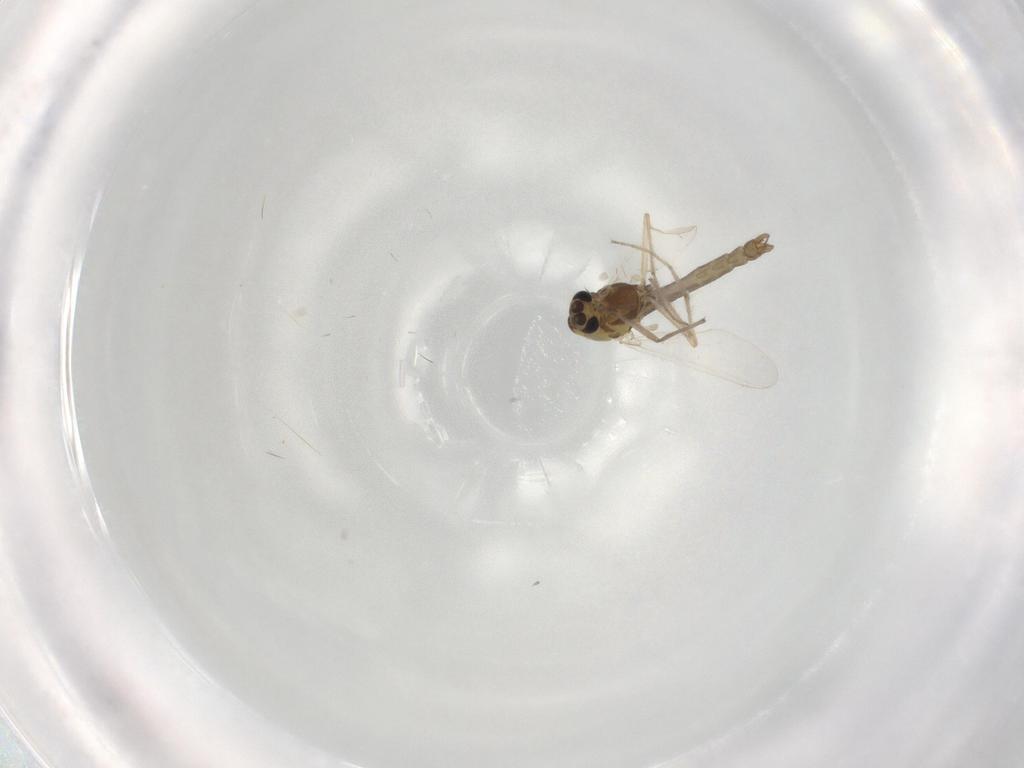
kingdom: Animalia
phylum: Arthropoda
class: Insecta
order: Diptera
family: Chironomidae
